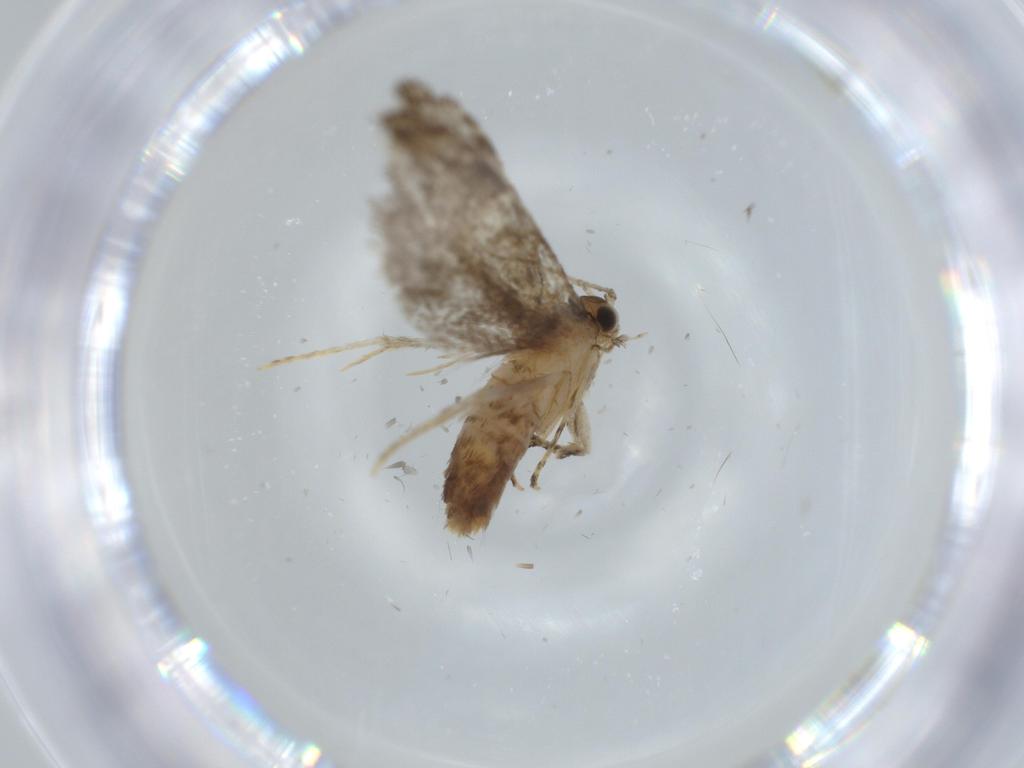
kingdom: Animalia
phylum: Arthropoda
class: Insecta
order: Lepidoptera
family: Tineidae
